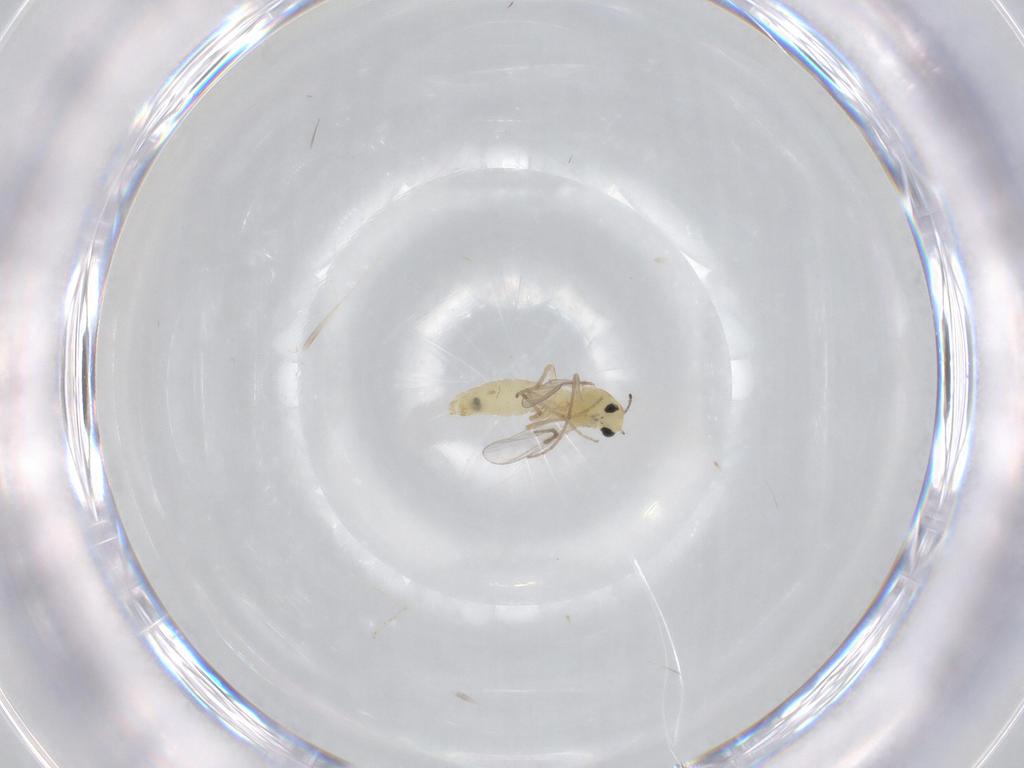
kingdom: Animalia
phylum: Arthropoda
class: Insecta
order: Diptera
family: Chironomidae
